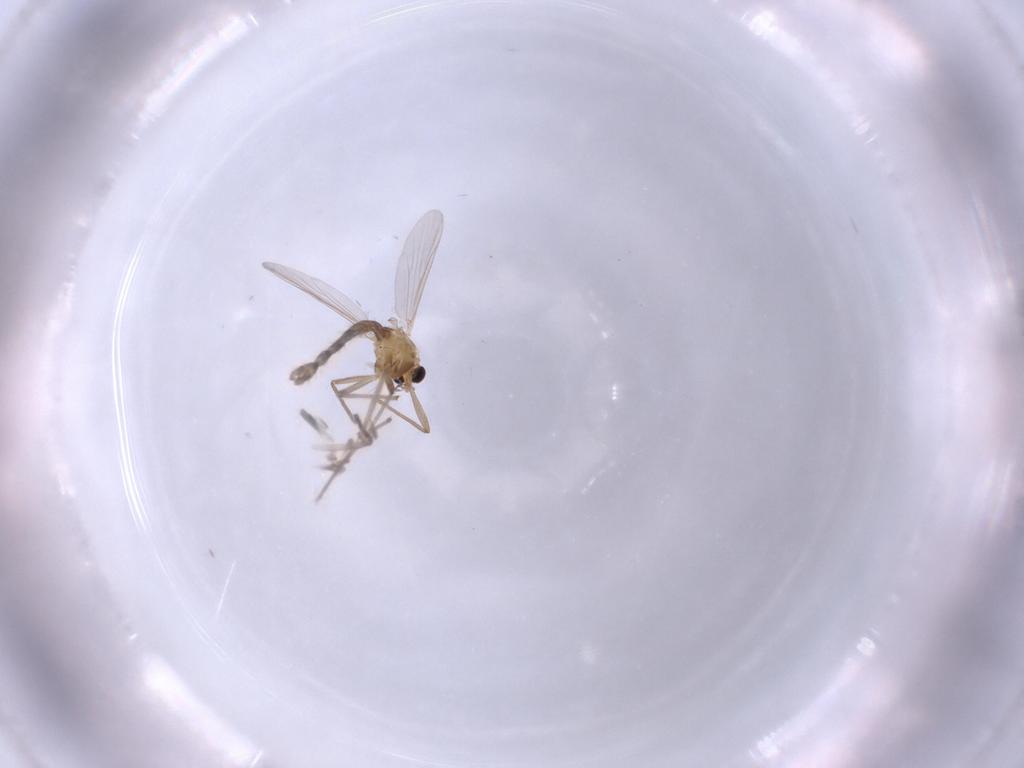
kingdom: Animalia
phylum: Arthropoda
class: Insecta
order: Diptera
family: Chironomidae
